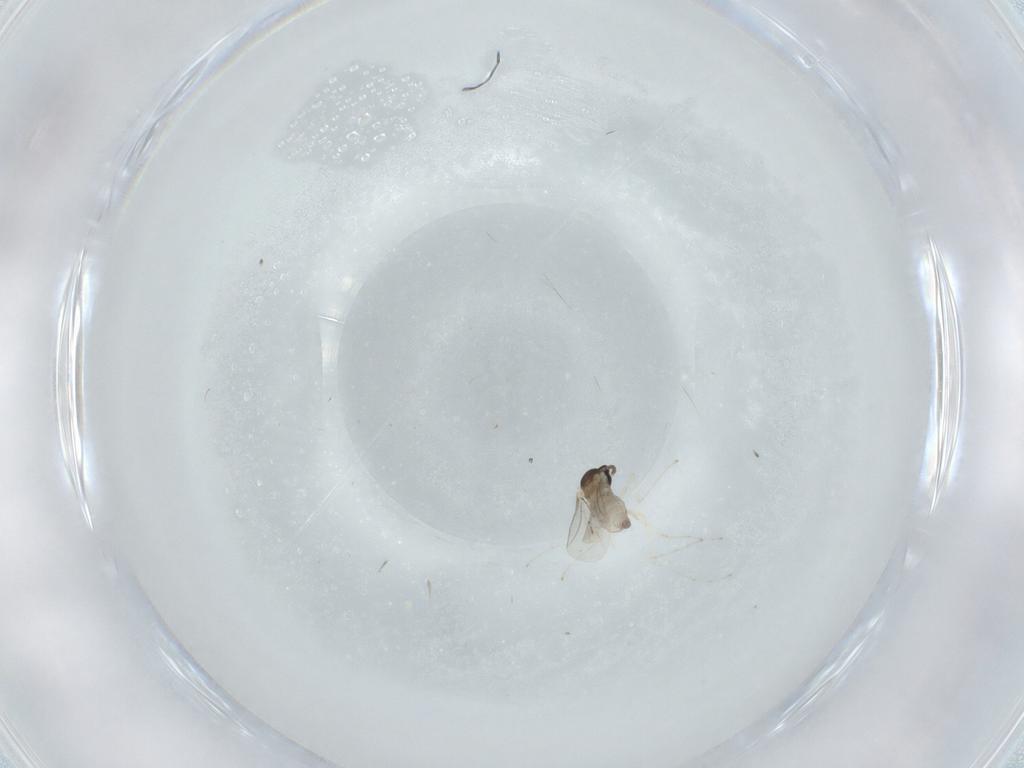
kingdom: Animalia
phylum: Arthropoda
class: Insecta
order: Diptera
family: Cecidomyiidae
